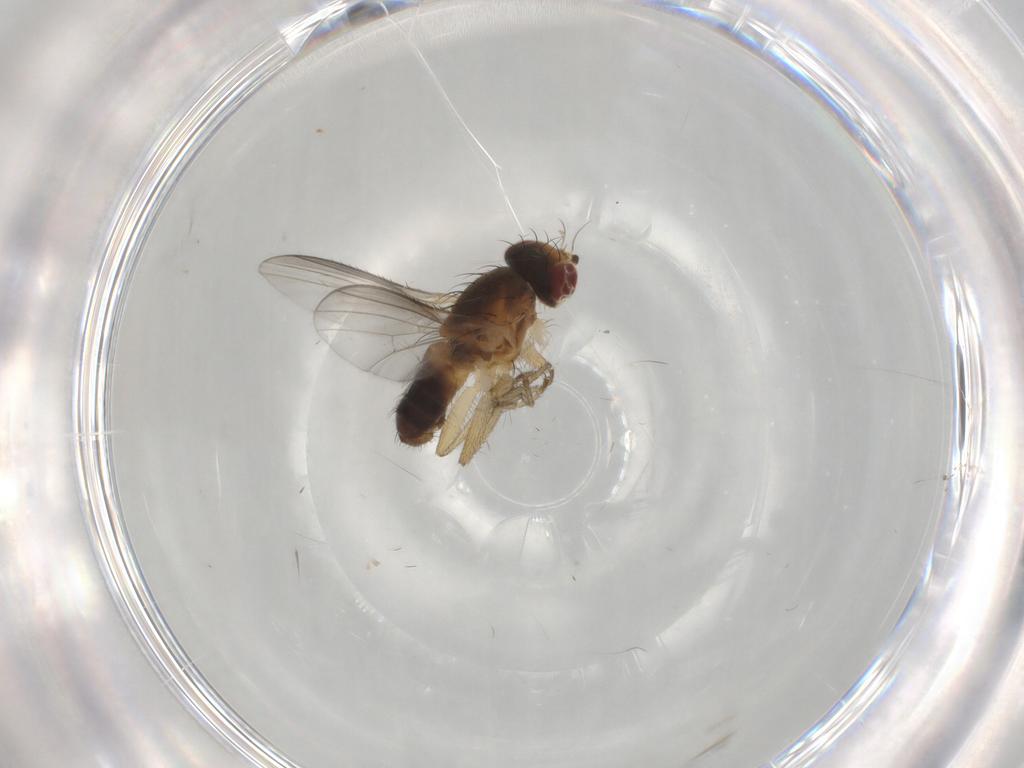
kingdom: Animalia
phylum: Arthropoda
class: Insecta
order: Diptera
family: Heleomyzidae
